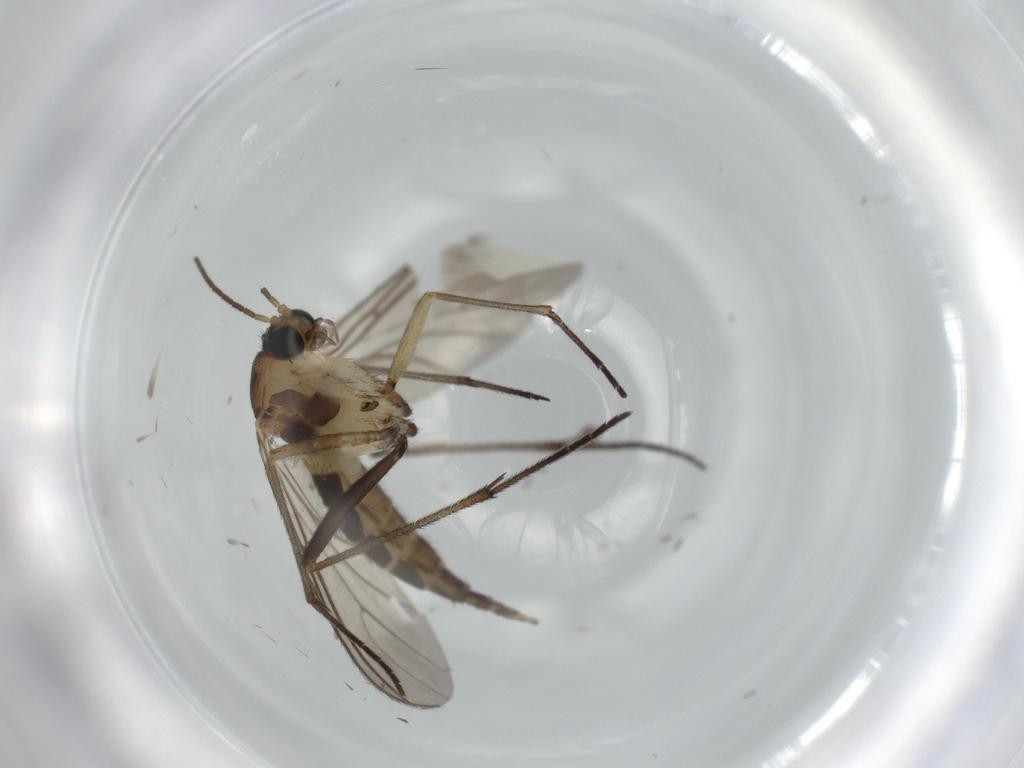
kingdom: Animalia
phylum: Arthropoda
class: Insecta
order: Diptera
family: Sciaridae
